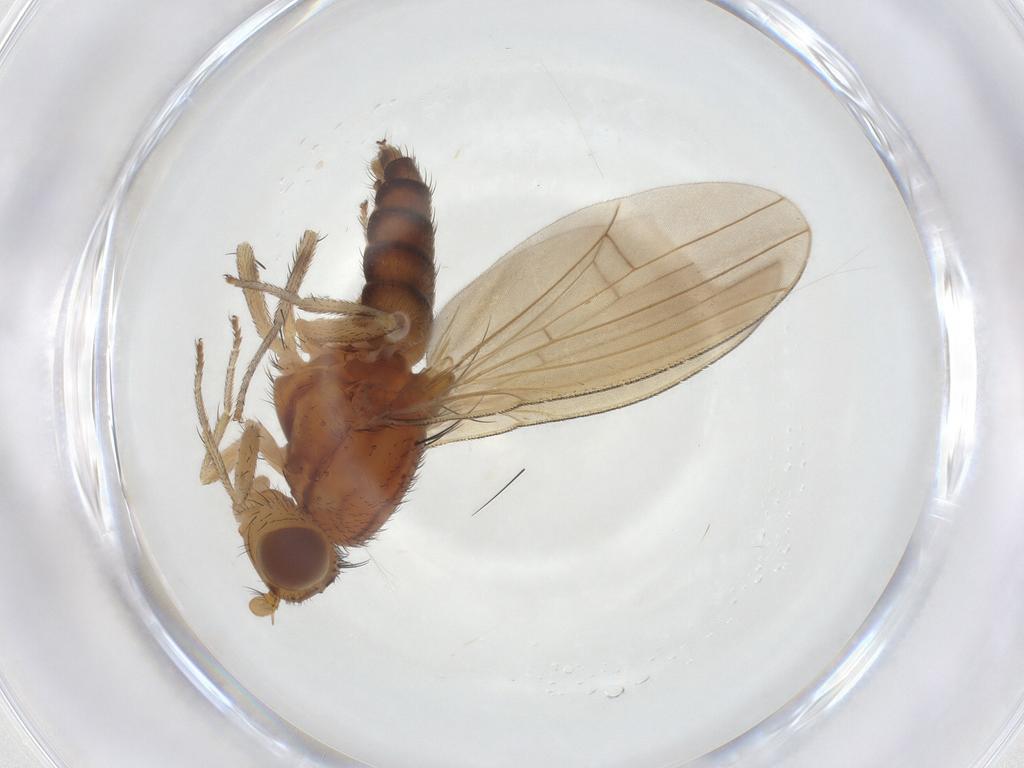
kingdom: Animalia
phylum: Arthropoda
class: Insecta
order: Diptera
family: Lauxaniidae
